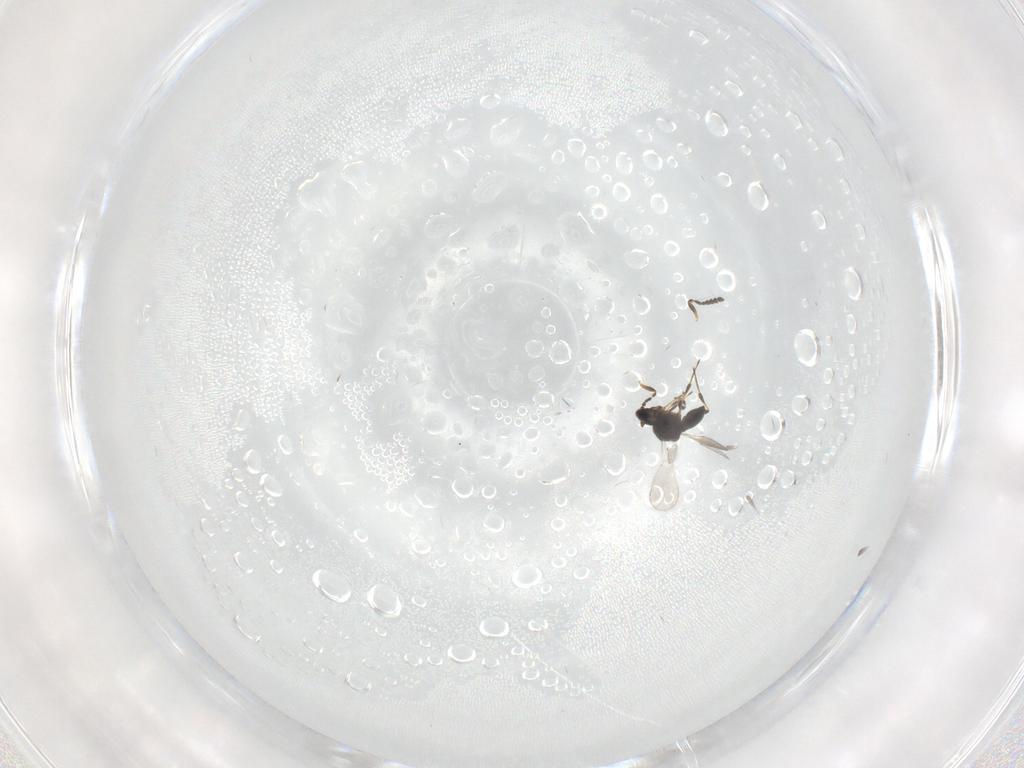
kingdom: Animalia
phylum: Arthropoda
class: Insecta
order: Hymenoptera
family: Platygastridae
